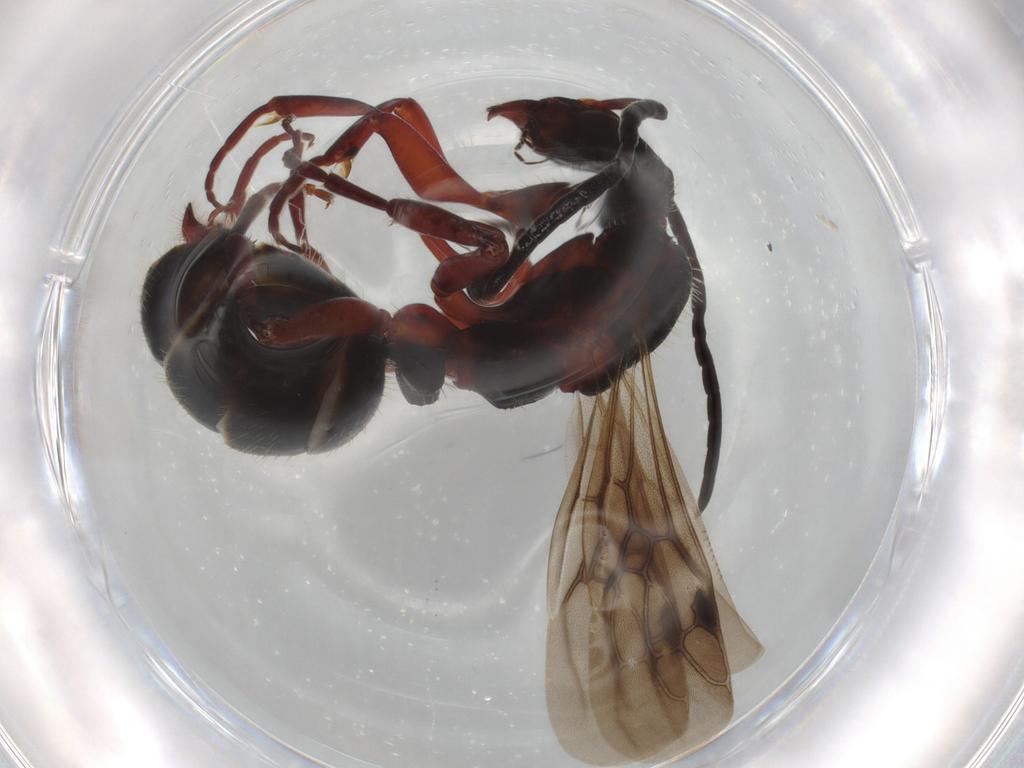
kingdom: Animalia
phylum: Arthropoda
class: Insecta
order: Hymenoptera
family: Formicidae
